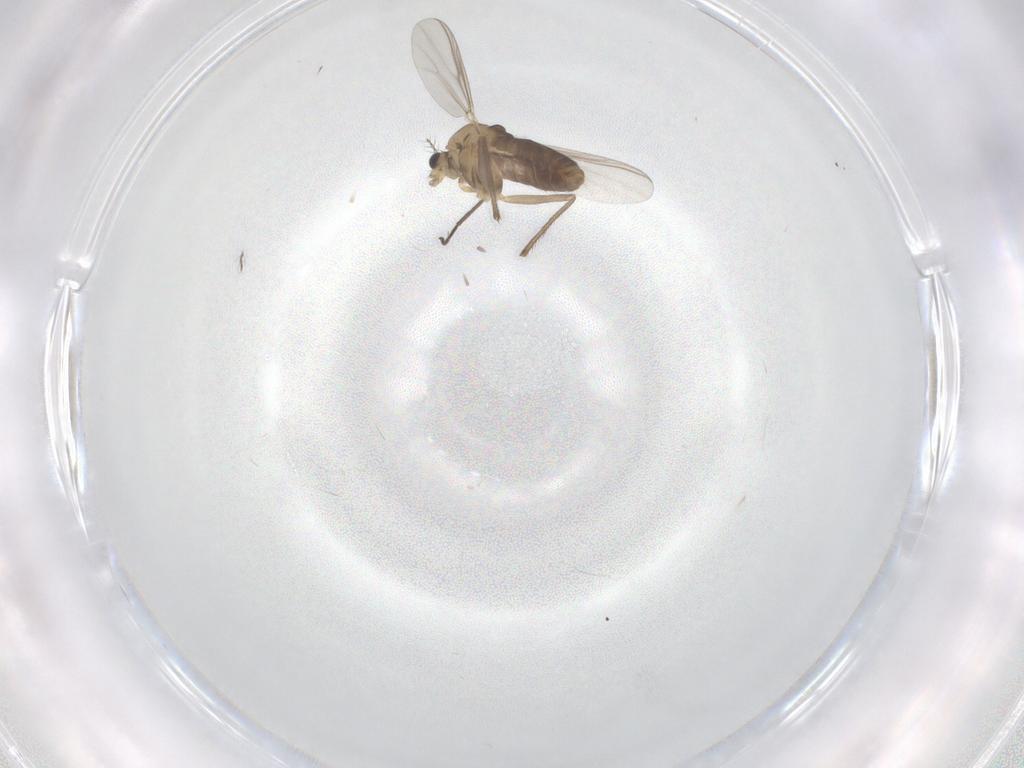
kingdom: Animalia
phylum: Arthropoda
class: Insecta
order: Diptera
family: Chironomidae
